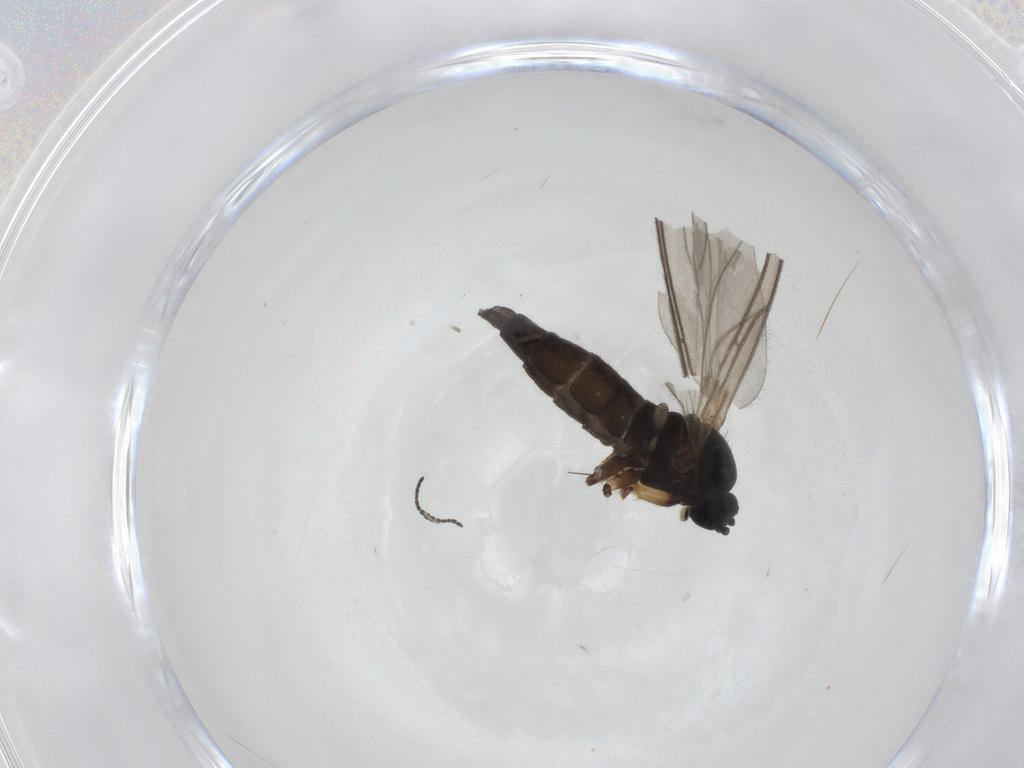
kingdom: Animalia
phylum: Arthropoda
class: Insecta
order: Diptera
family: Sciaridae
